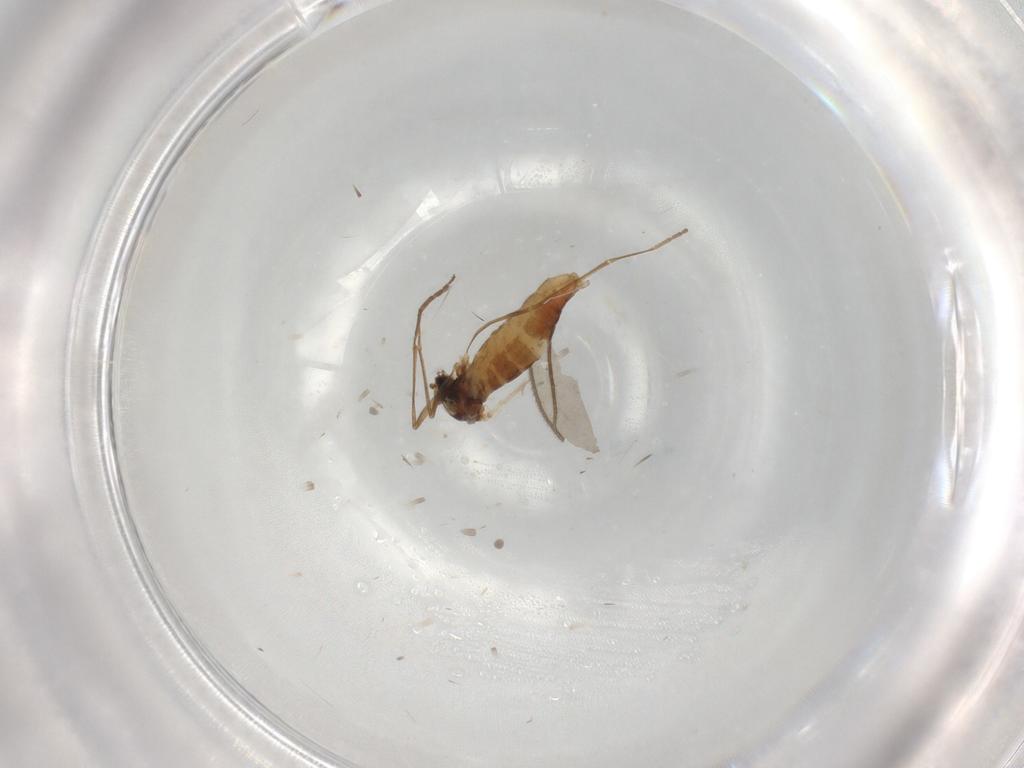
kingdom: Animalia
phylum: Arthropoda
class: Insecta
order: Diptera
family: Cecidomyiidae
